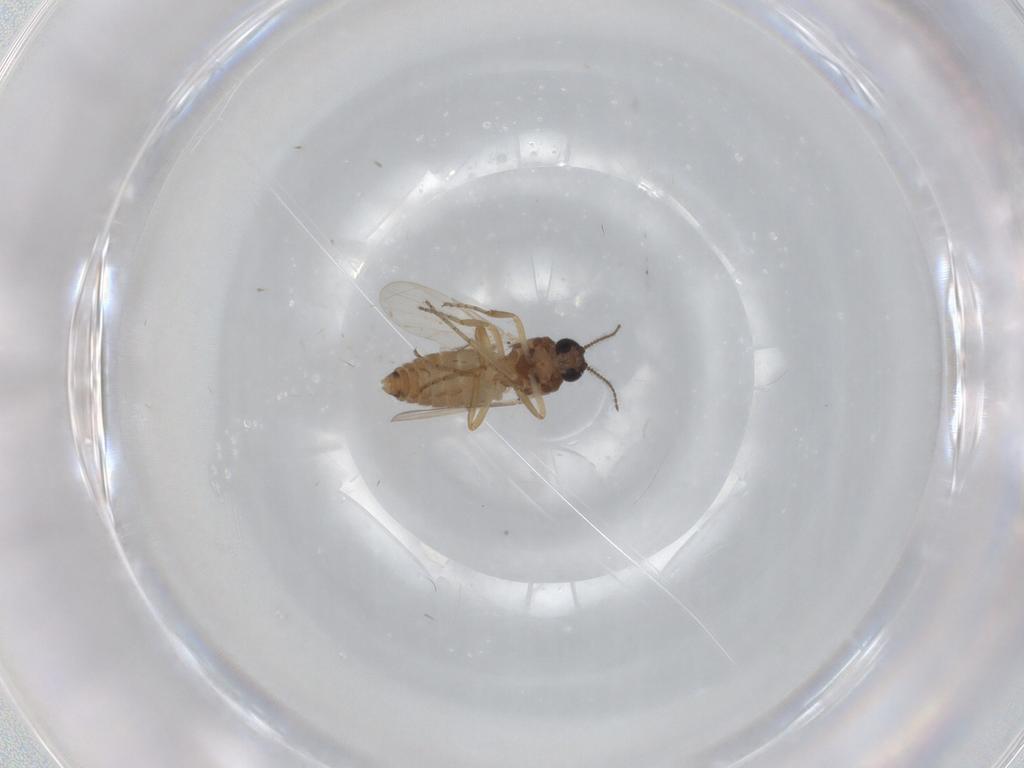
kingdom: Animalia
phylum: Arthropoda
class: Insecta
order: Diptera
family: Ceratopogonidae
